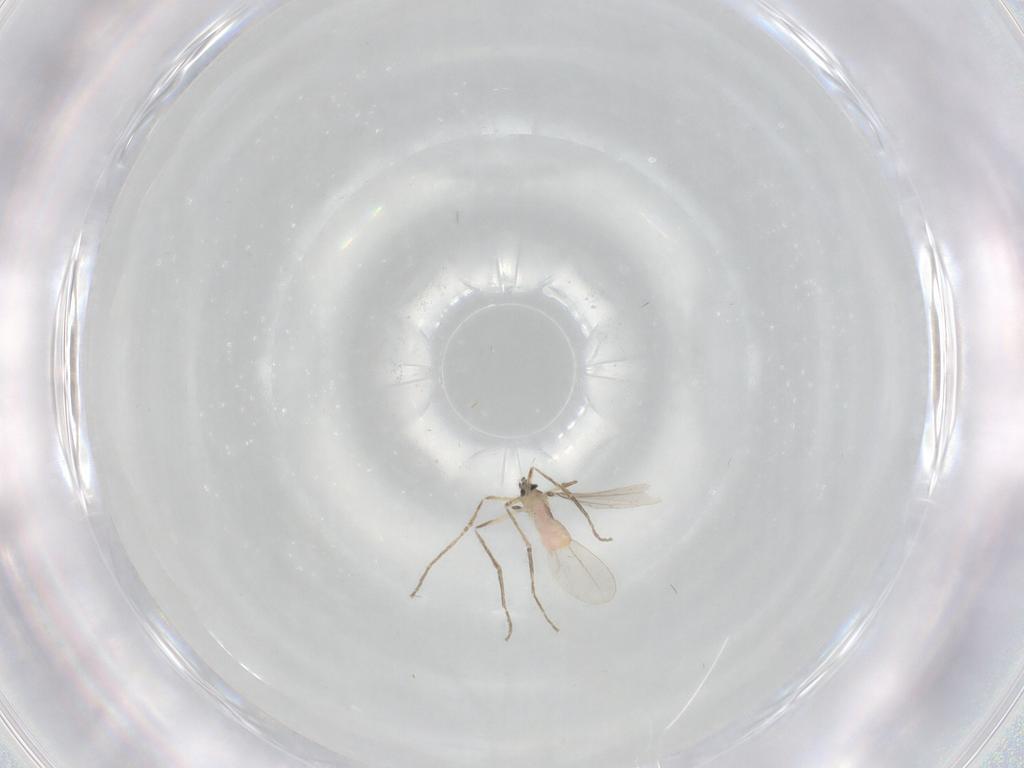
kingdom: Animalia
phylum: Arthropoda
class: Insecta
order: Diptera
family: Cecidomyiidae
